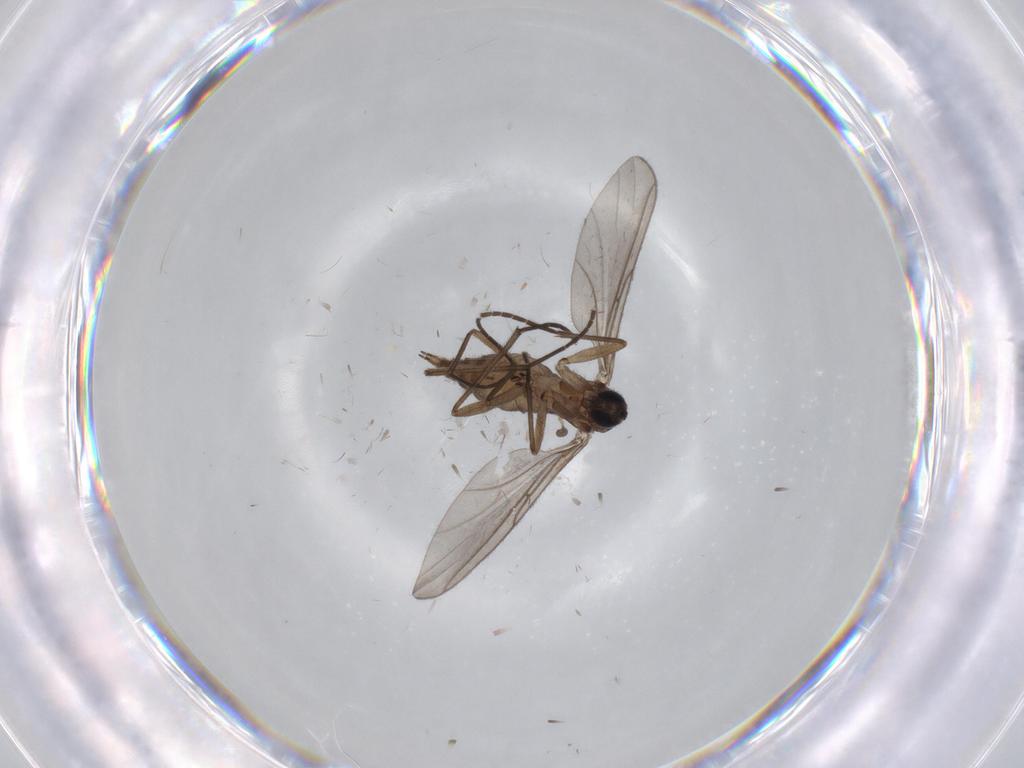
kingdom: Animalia
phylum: Arthropoda
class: Insecta
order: Diptera
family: Sciaridae
